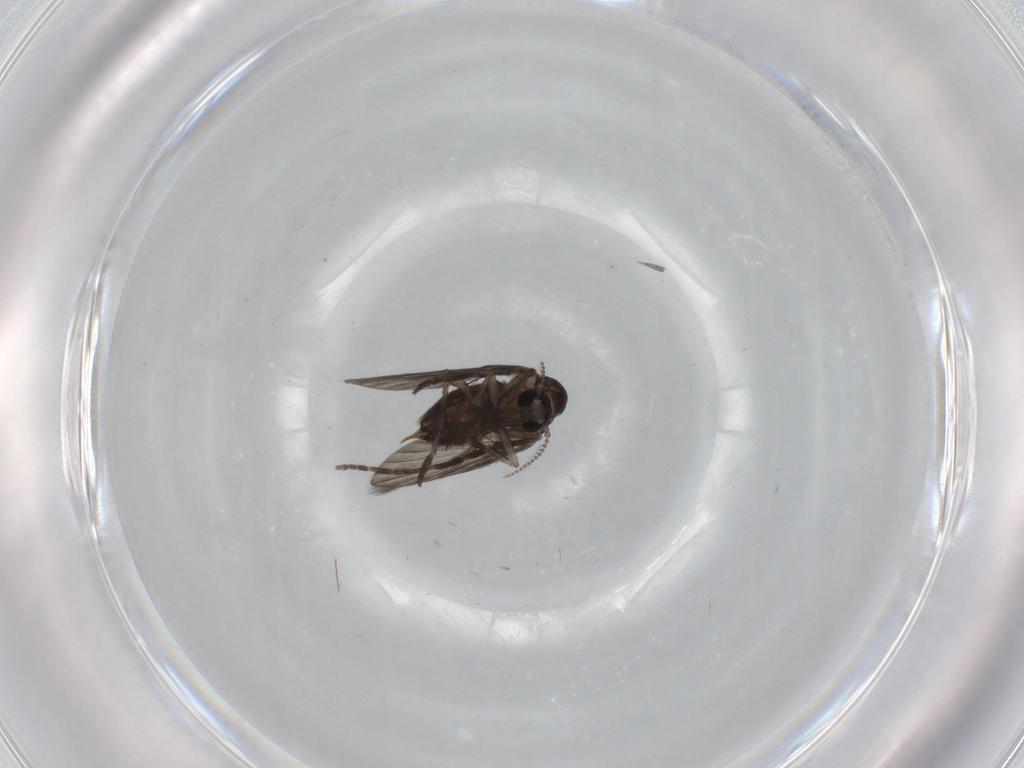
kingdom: Animalia
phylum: Arthropoda
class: Insecta
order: Diptera
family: Psychodidae
